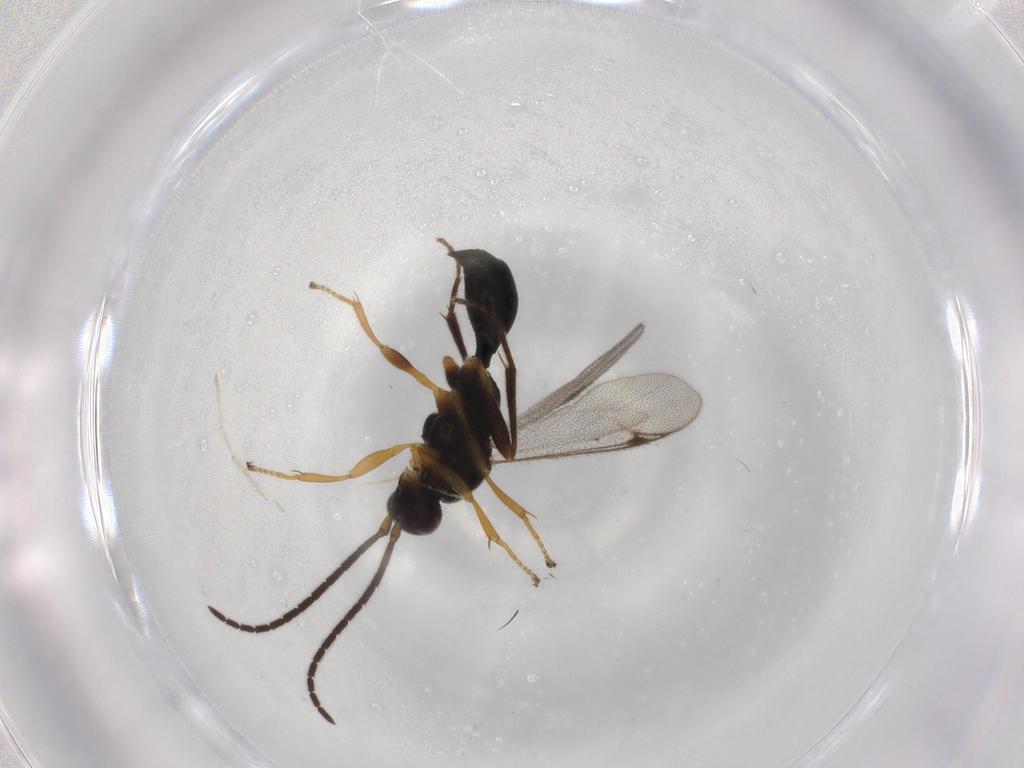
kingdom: Animalia
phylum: Arthropoda
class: Insecta
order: Hymenoptera
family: Proctotrupidae
